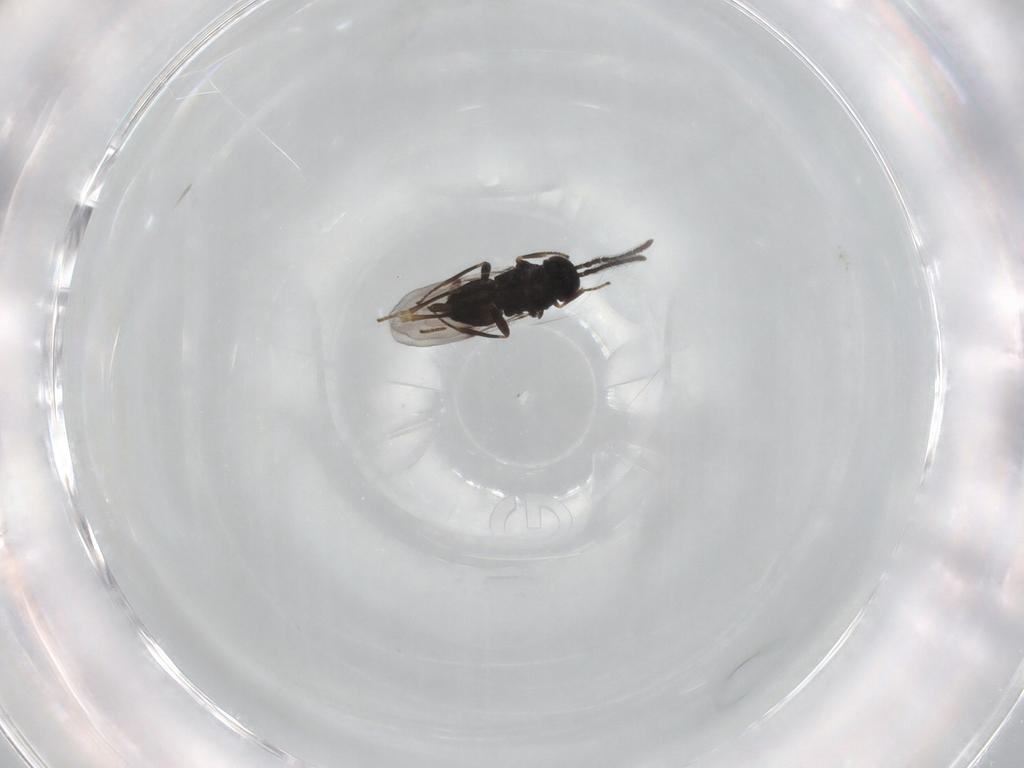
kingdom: Animalia
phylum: Arthropoda
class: Insecta
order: Hymenoptera
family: Encyrtidae
